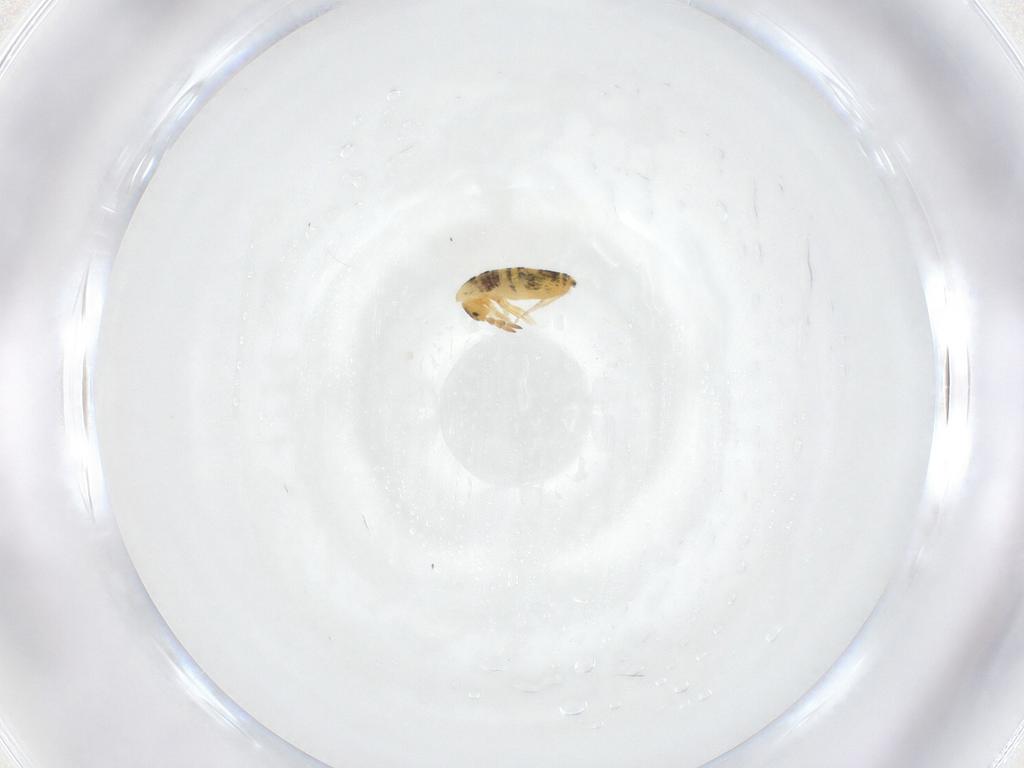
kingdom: Animalia
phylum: Arthropoda
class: Collembola
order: Entomobryomorpha
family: Entomobryidae
